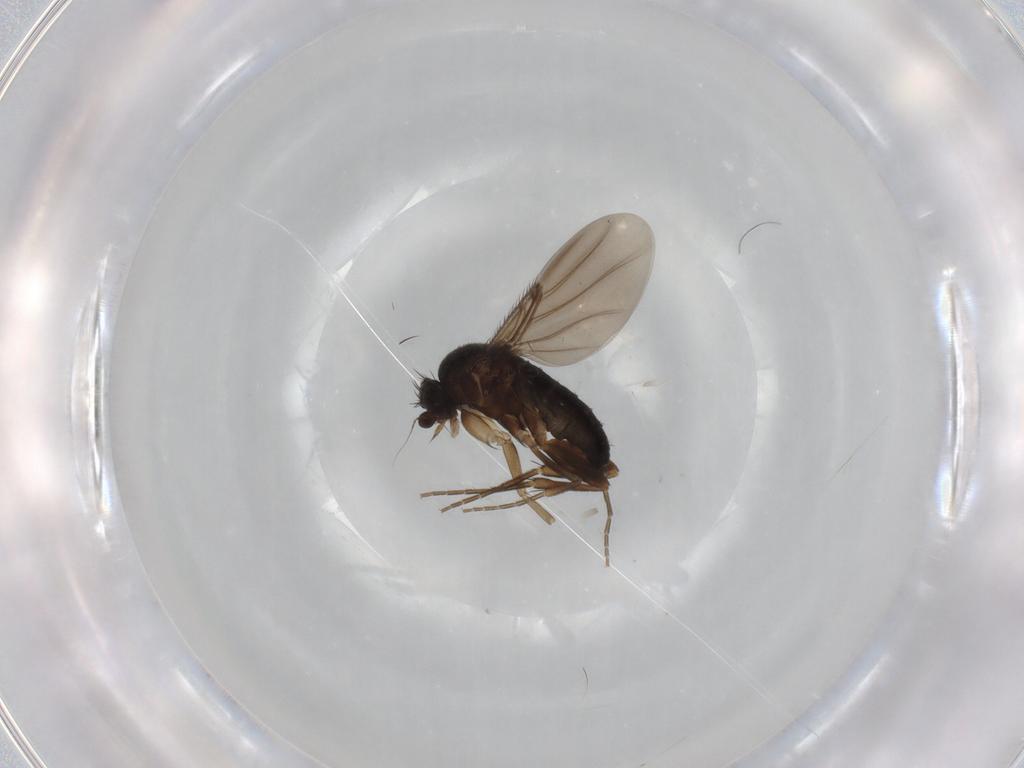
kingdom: Animalia
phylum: Arthropoda
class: Insecta
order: Diptera
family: Phoridae
